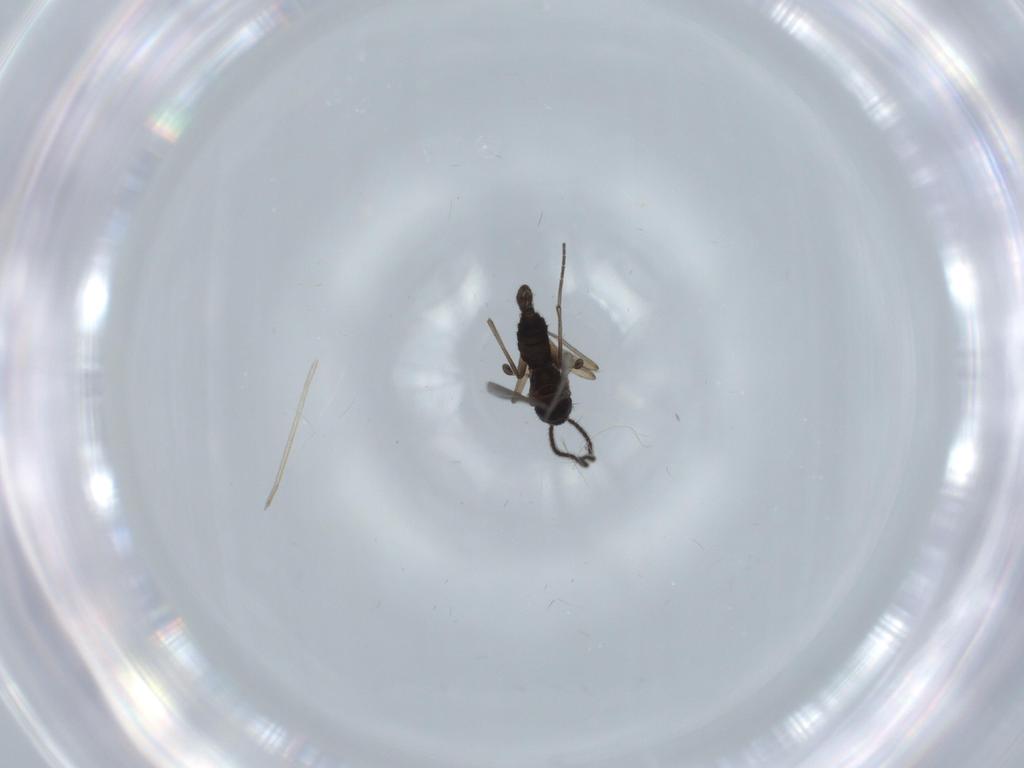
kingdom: Animalia
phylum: Arthropoda
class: Insecta
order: Diptera
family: Sciaridae
